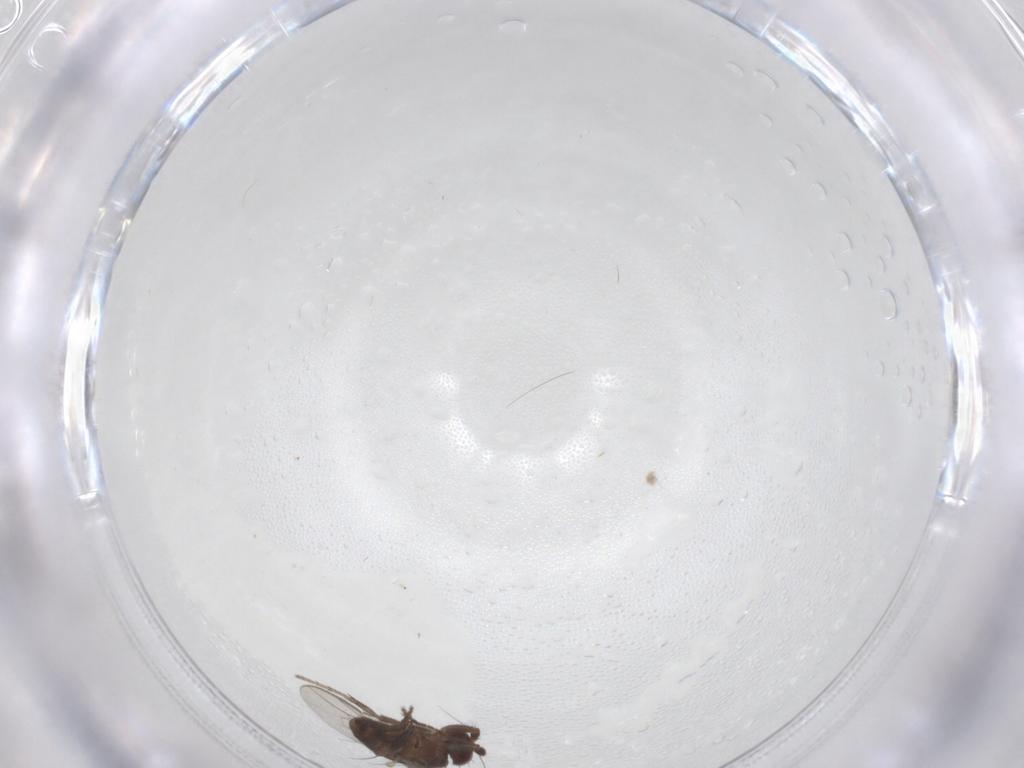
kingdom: Animalia
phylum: Arthropoda
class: Insecta
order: Diptera
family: Sphaeroceridae
